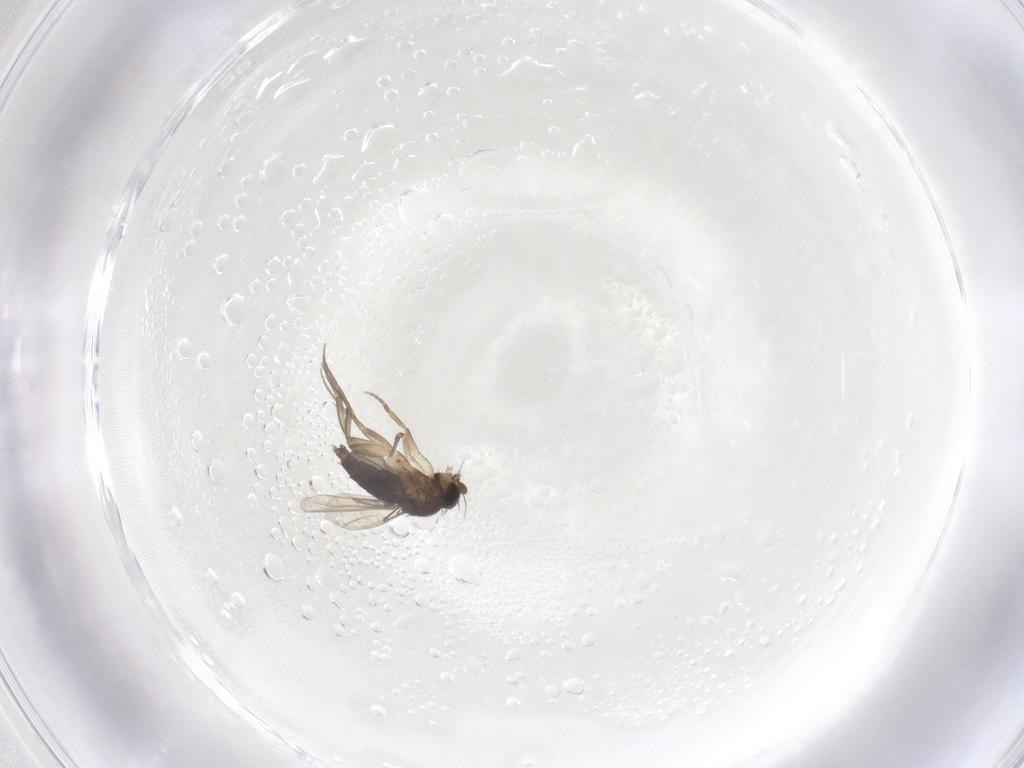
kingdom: Animalia
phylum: Arthropoda
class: Insecta
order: Diptera
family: Phoridae
